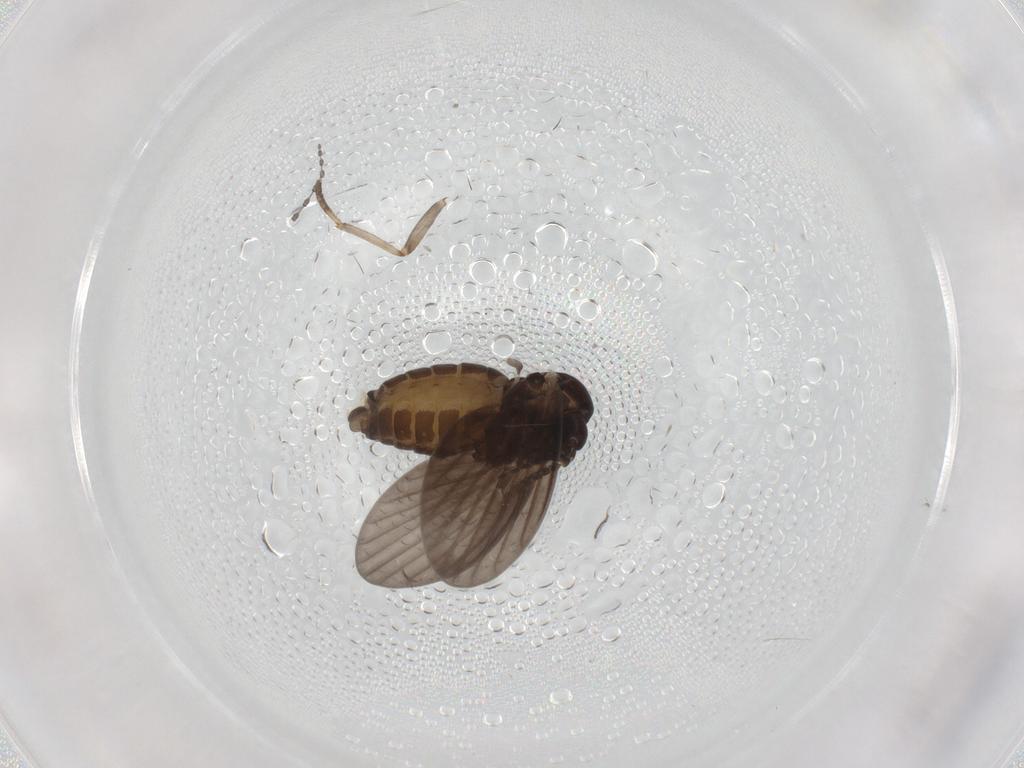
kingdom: Animalia
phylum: Arthropoda
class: Insecta
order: Diptera
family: Psychodidae
